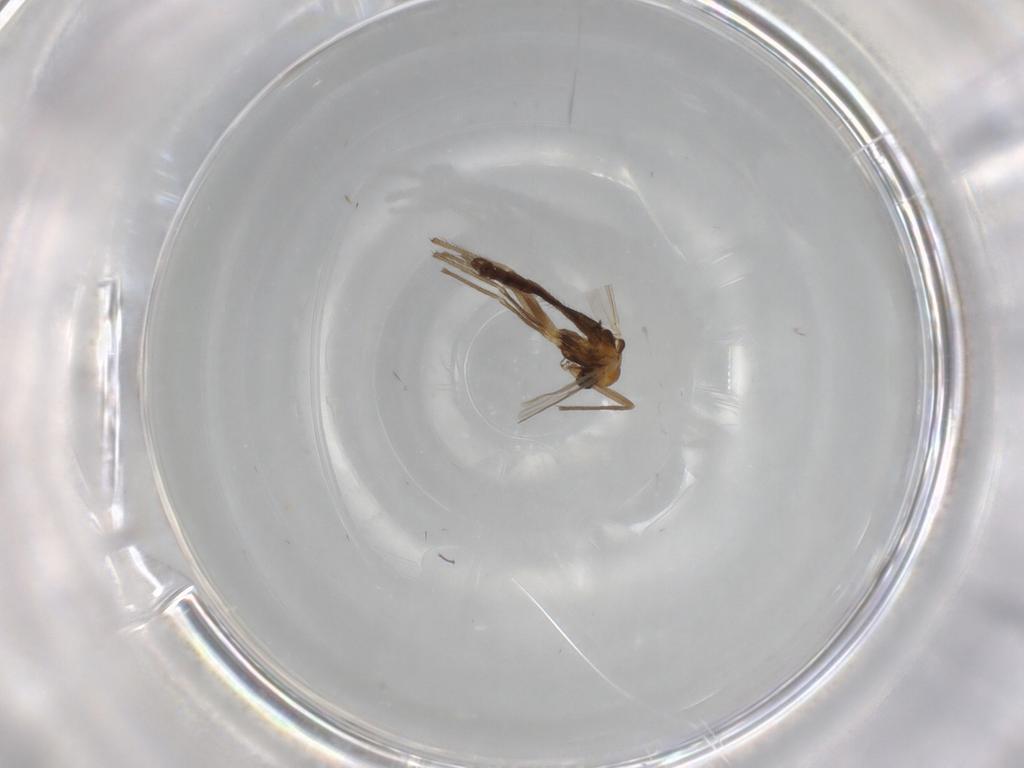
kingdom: Animalia
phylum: Arthropoda
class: Insecta
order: Diptera
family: Chironomidae
